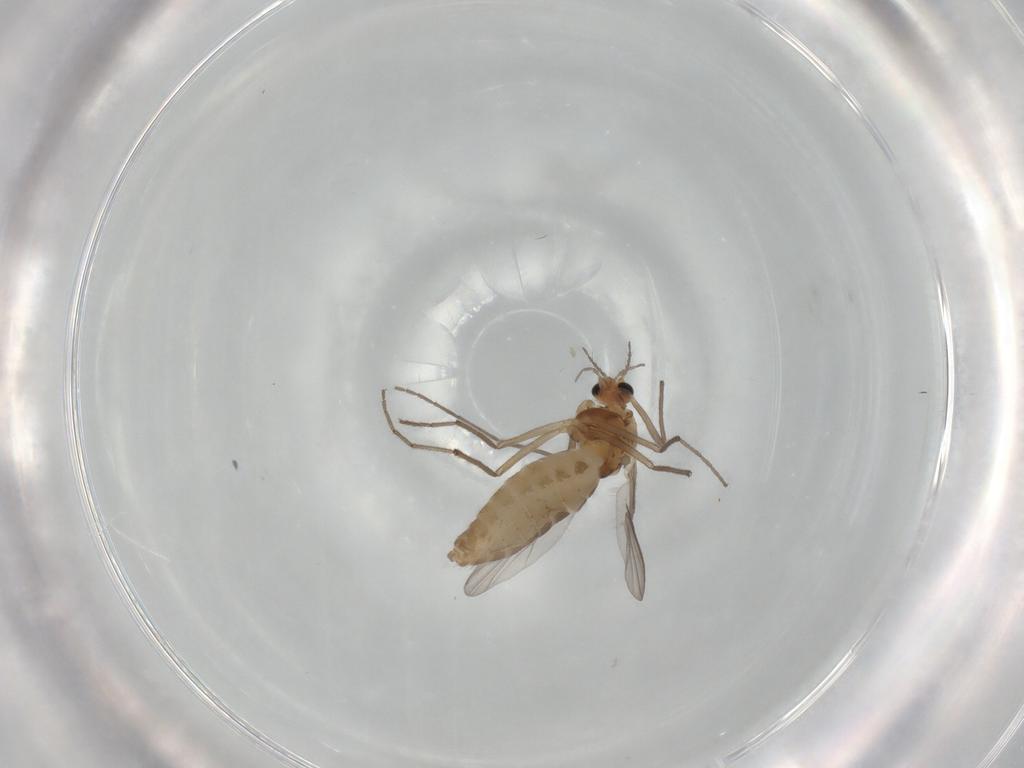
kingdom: Animalia
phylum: Arthropoda
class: Insecta
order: Diptera
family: Chironomidae
